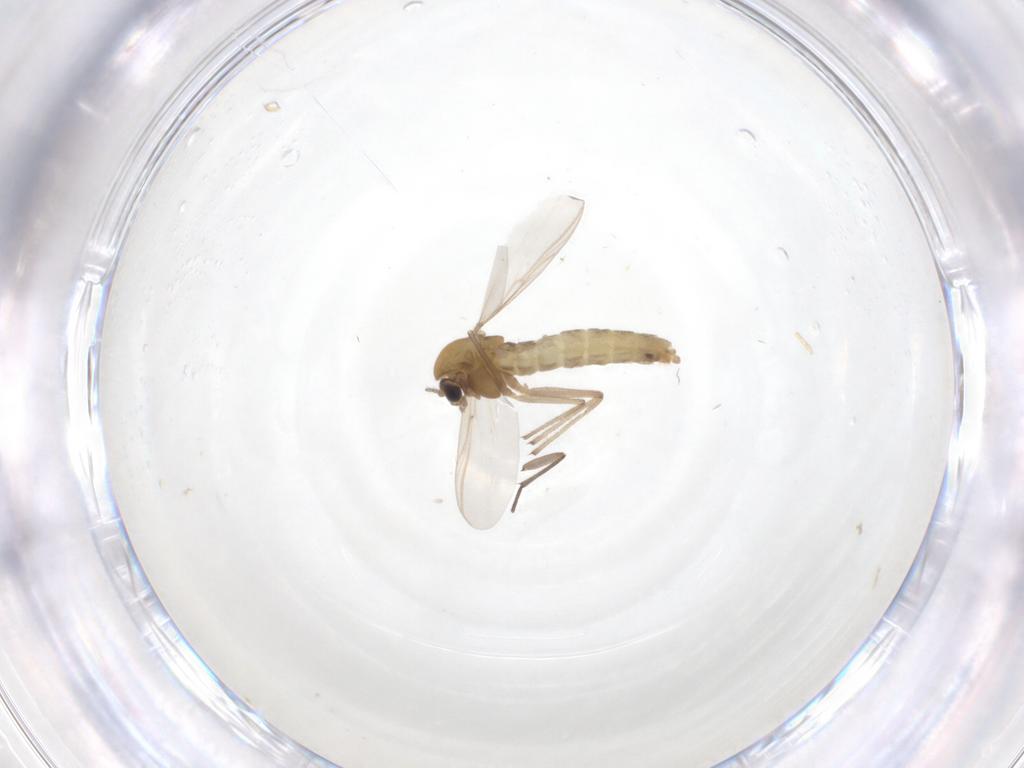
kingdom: Animalia
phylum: Arthropoda
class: Insecta
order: Diptera
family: Chironomidae
